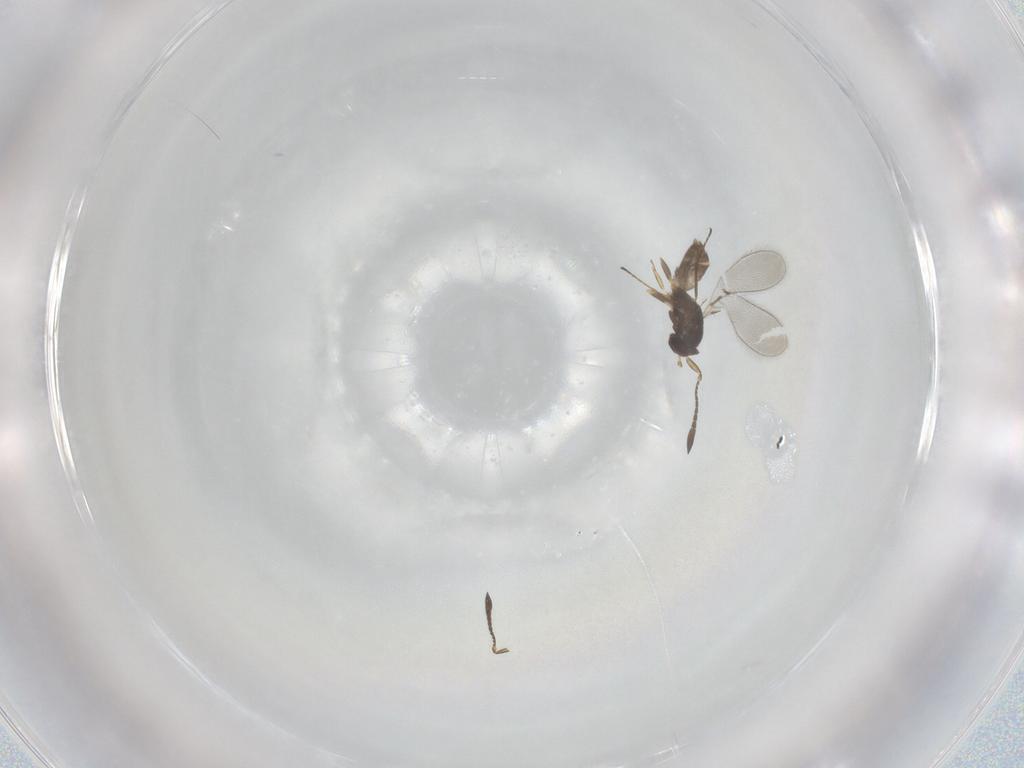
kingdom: Animalia
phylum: Arthropoda
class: Insecta
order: Hymenoptera
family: Mymaridae
